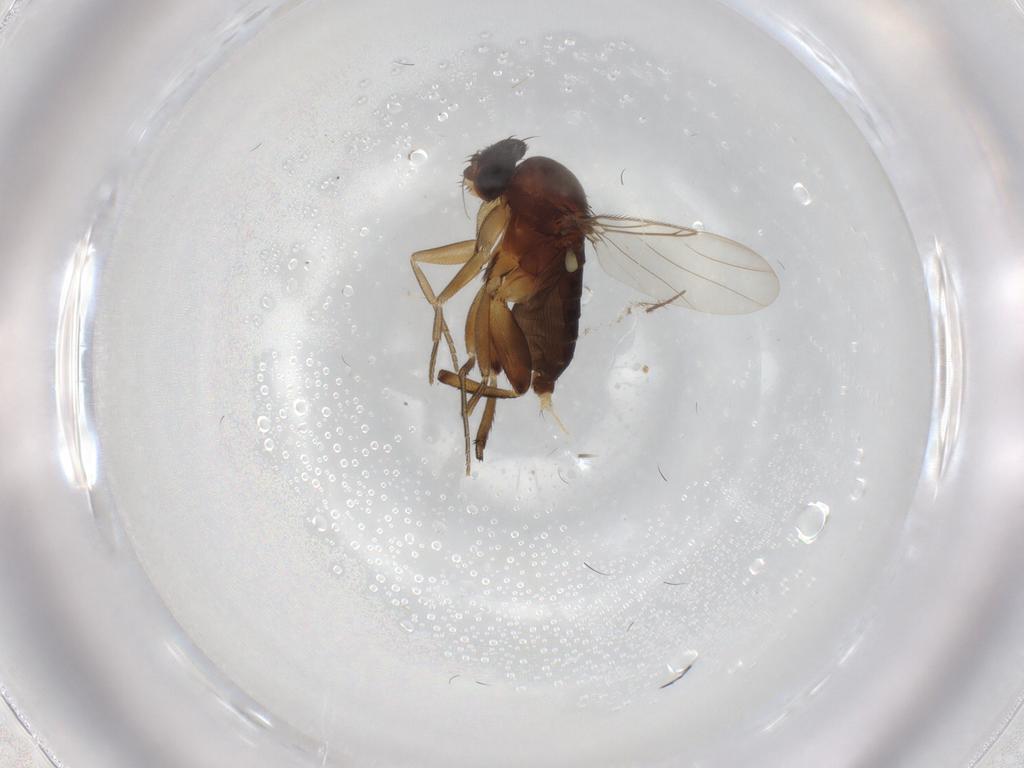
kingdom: Animalia
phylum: Arthropoda
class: Insecta
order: Diptera
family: Phoridae
